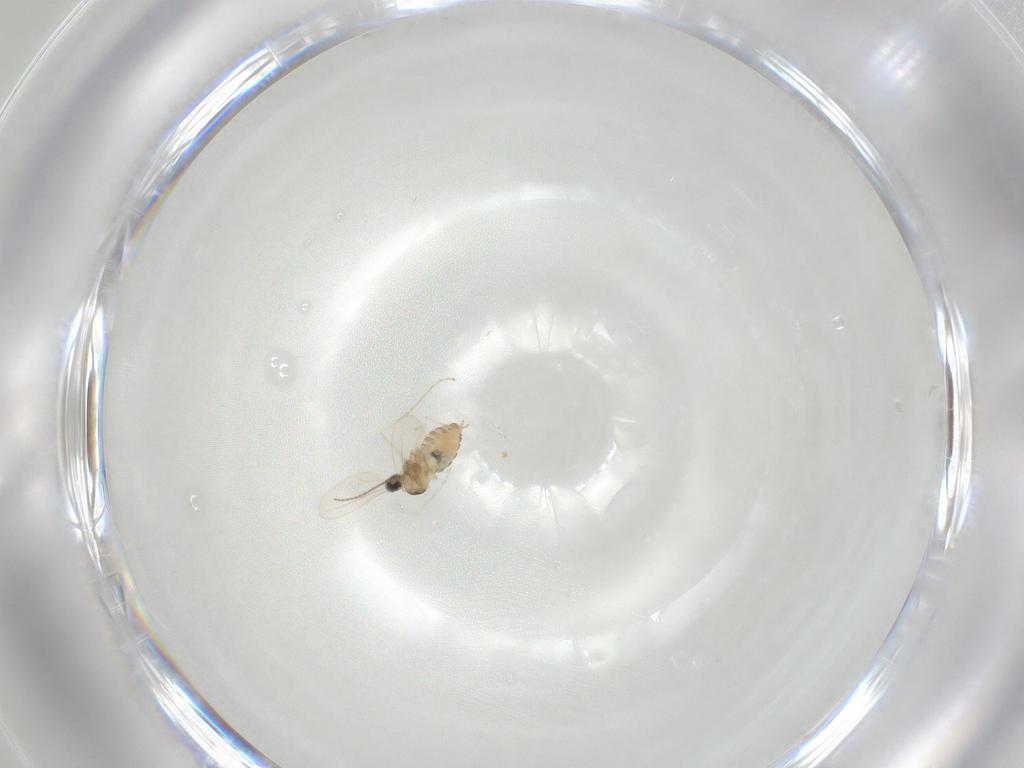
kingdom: Animalia
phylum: Arthropoda
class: Insecta
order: Diptera
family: Cecidomyiidae
